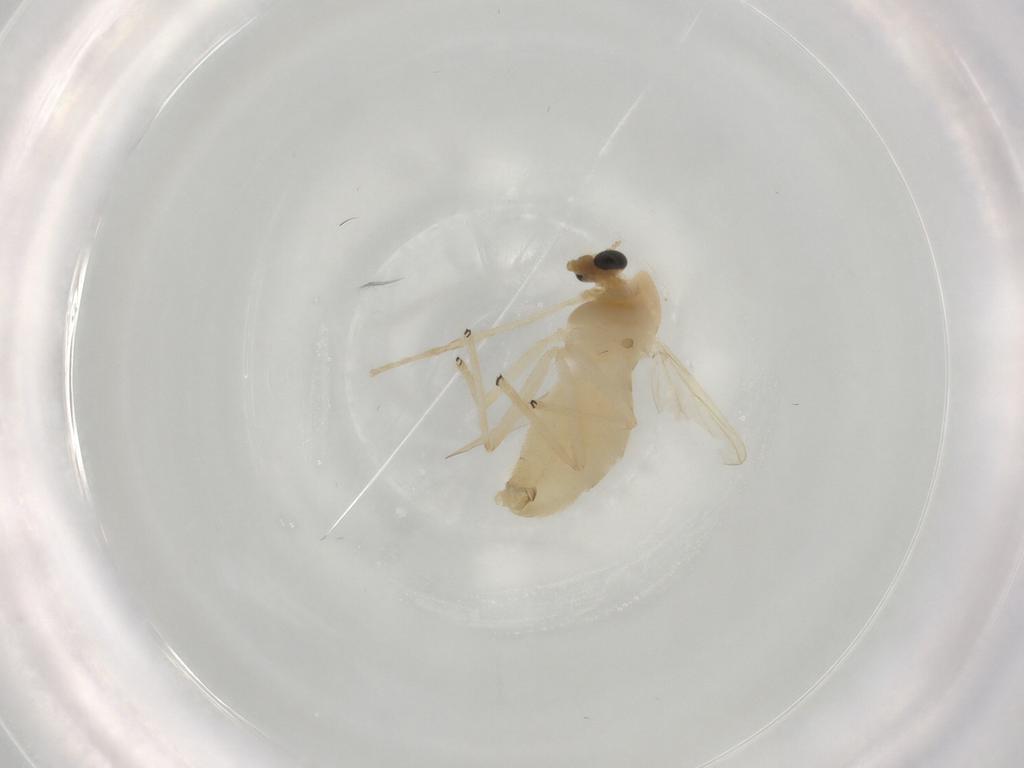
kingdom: Animalia
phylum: Arthropoda
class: Insecta
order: Diptera
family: Chironomidae
